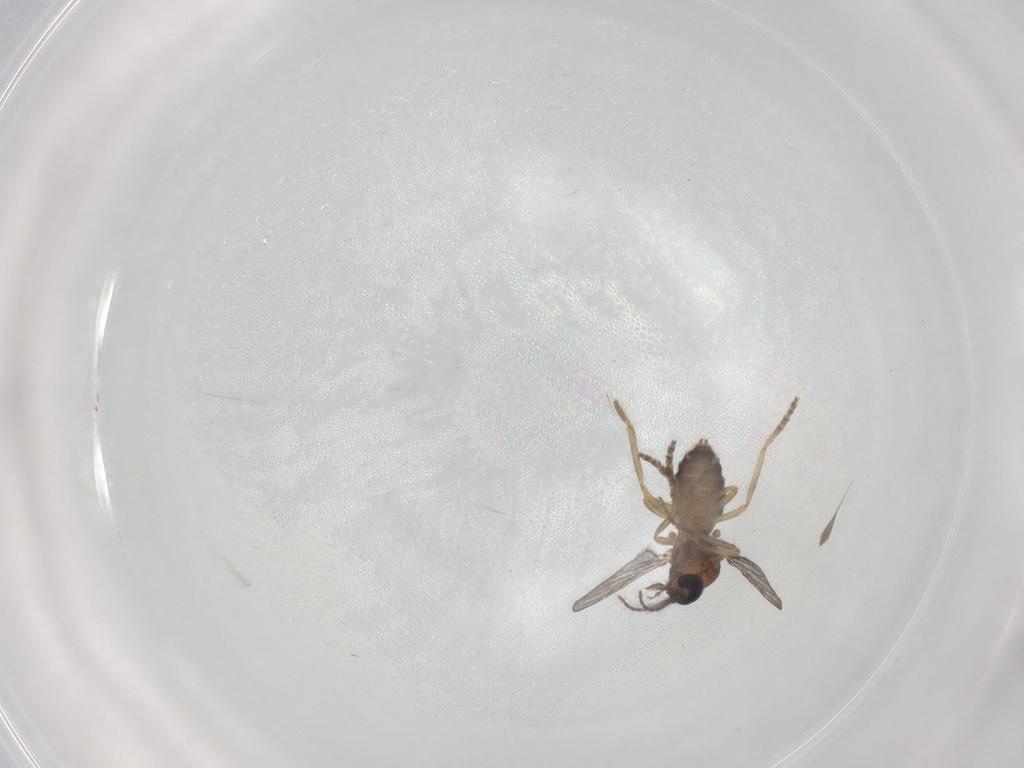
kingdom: Animalia
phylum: Arthropoda
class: Insecta
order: Diptera
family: Ceratopogonidae
